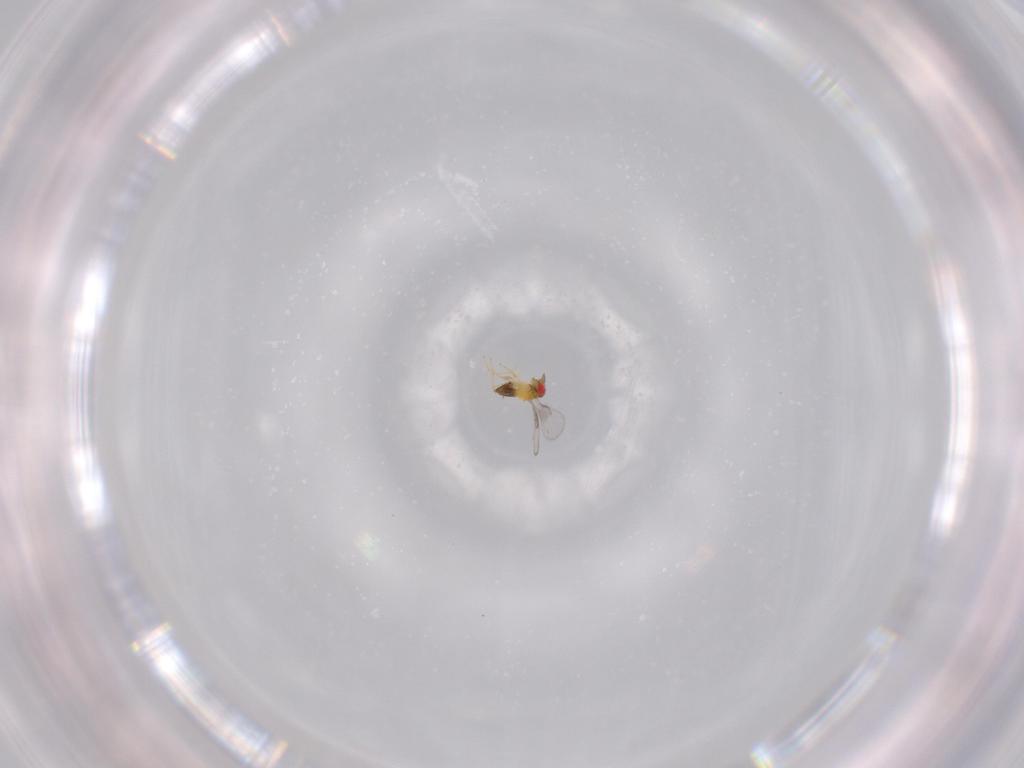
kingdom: Animalia
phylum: Arthropoda
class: Insecta
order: Hymenoptera
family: Trichogrammatidae
